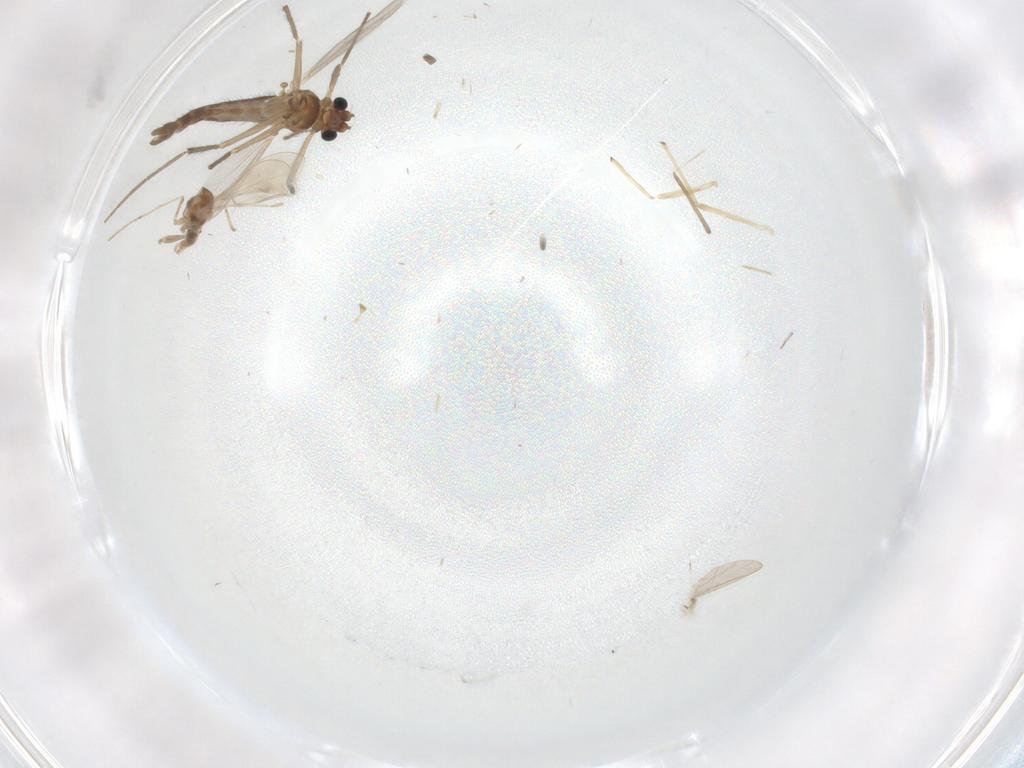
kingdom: Animalia
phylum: Arthropoda
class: Insecta
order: Diptera
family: Chironomidae
